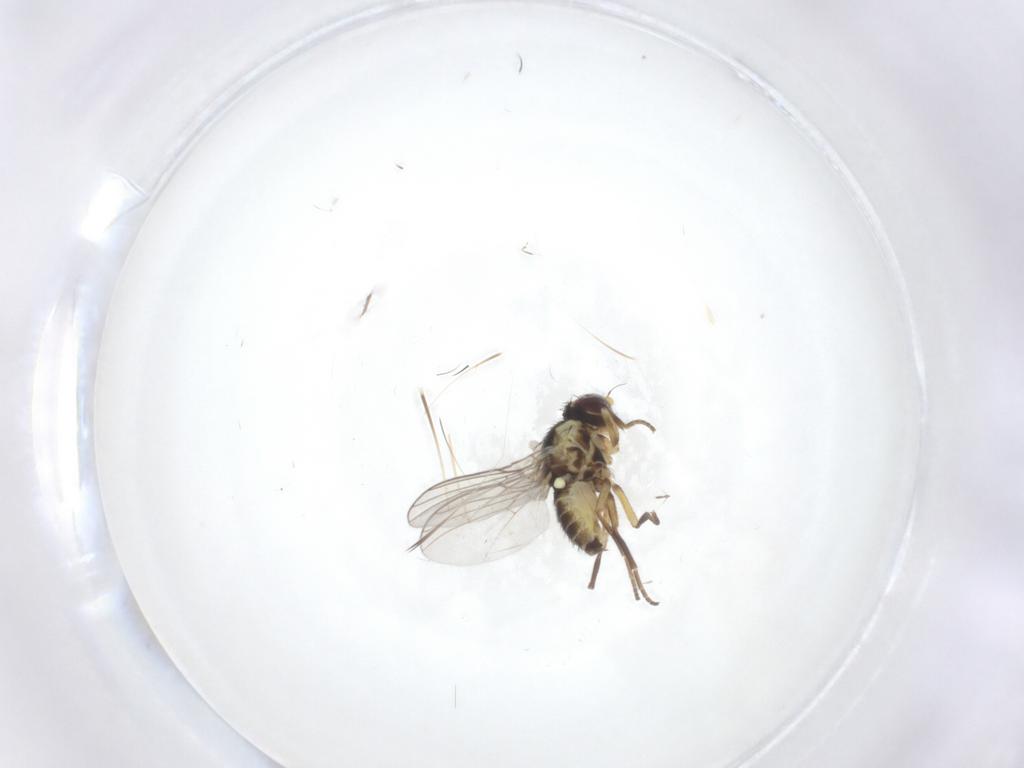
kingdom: Animalia
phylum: Arthropoda
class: Insecta
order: Diptera
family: Agromyzidae
